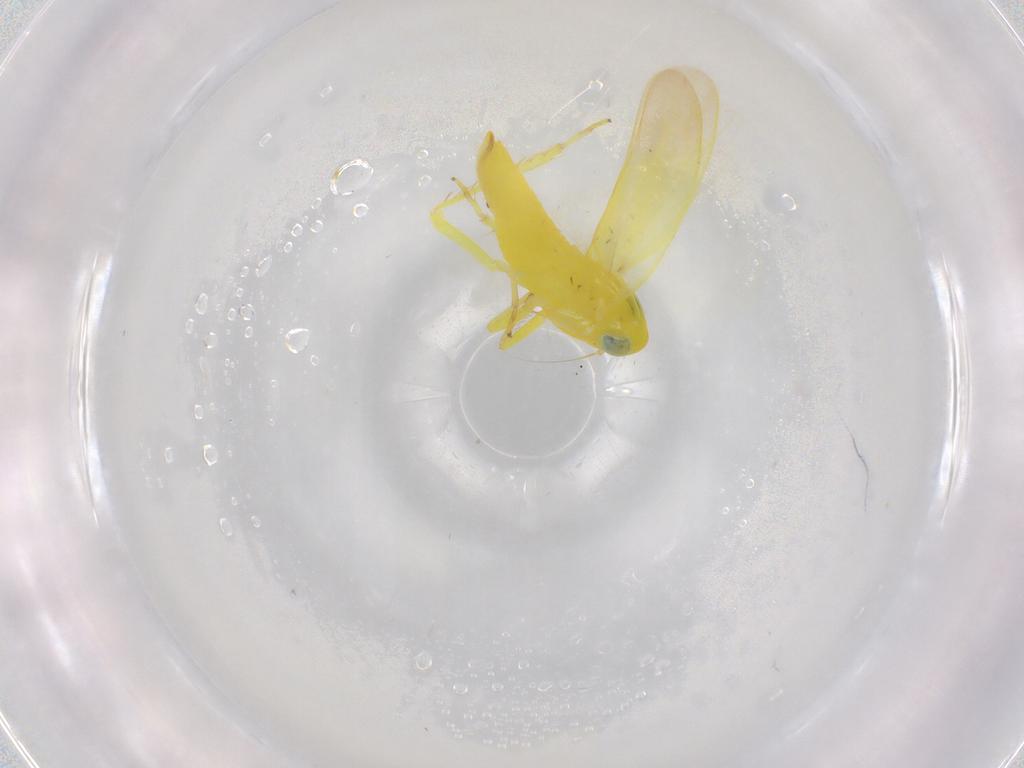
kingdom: Animalia
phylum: Arthropoda
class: Insecta
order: Hemiptera
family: Cicadellidae
